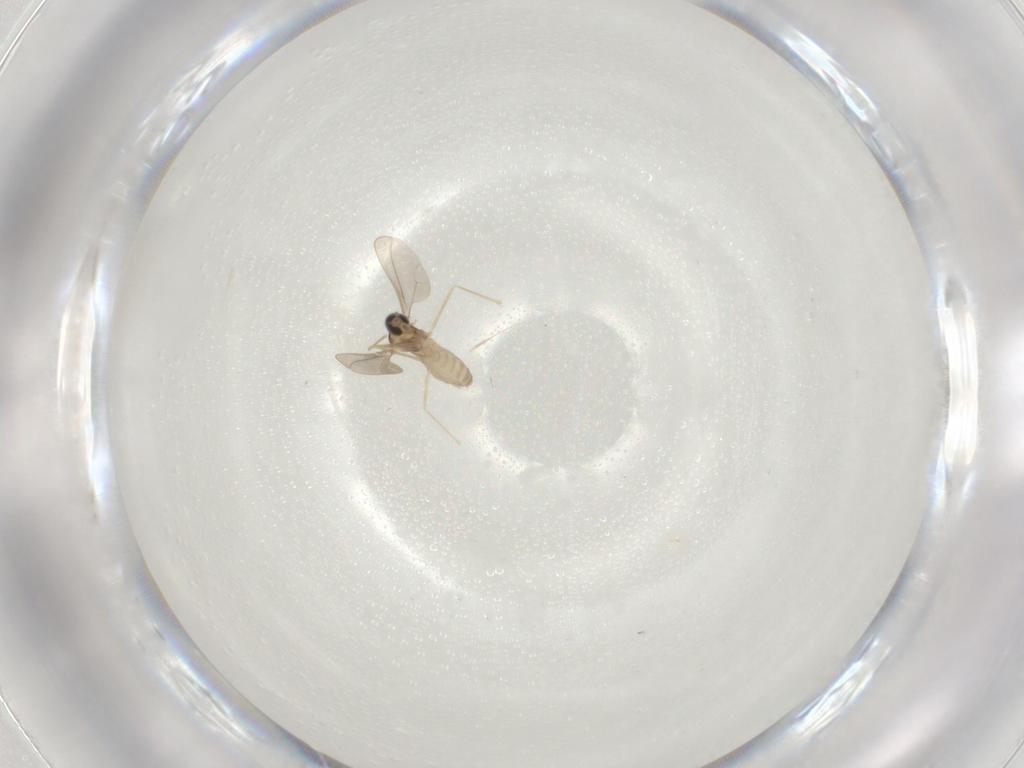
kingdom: Animalia
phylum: Arthropoda
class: Insecta
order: Diptera
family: Cecidomyiidae
